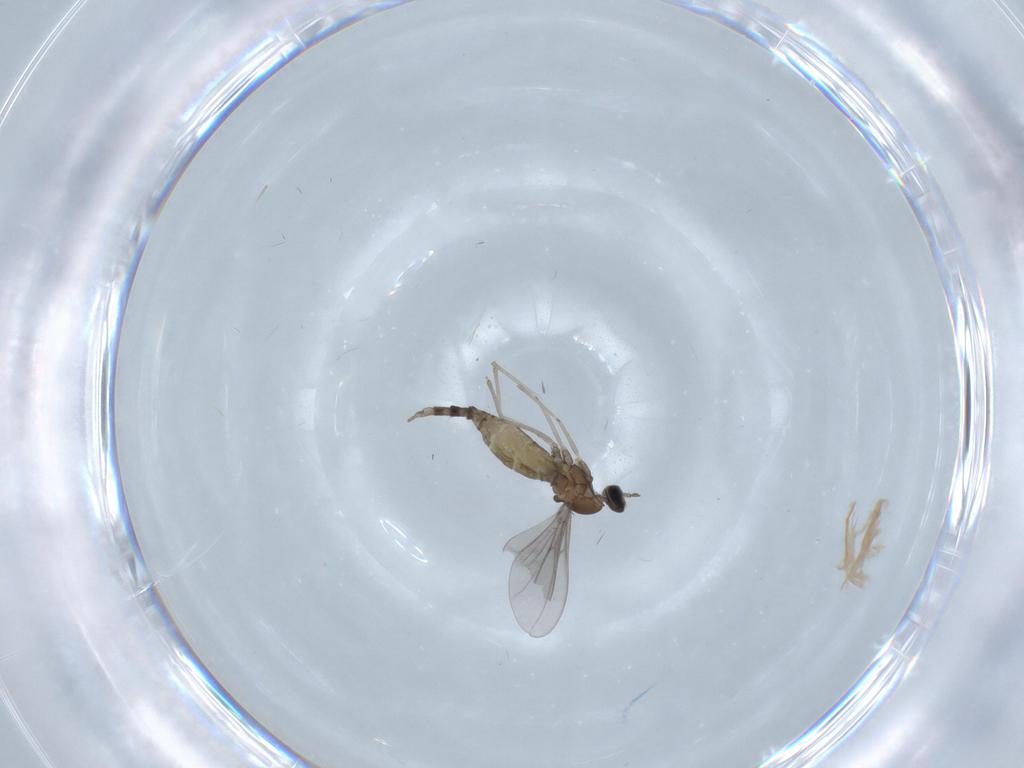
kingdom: Animalia
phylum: Arthropoda
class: Insecta
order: Diptera
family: Cecidomyiidae
